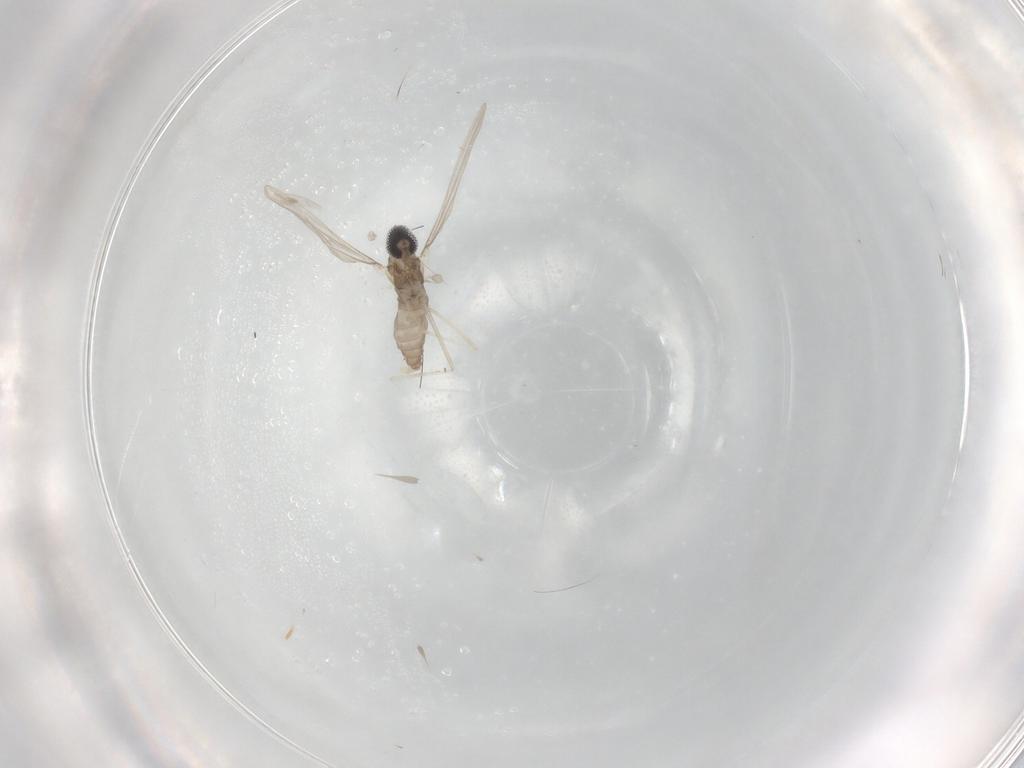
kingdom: Animalia
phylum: Arthropoda
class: Insecta
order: Diptera
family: Cecidomyiidae
